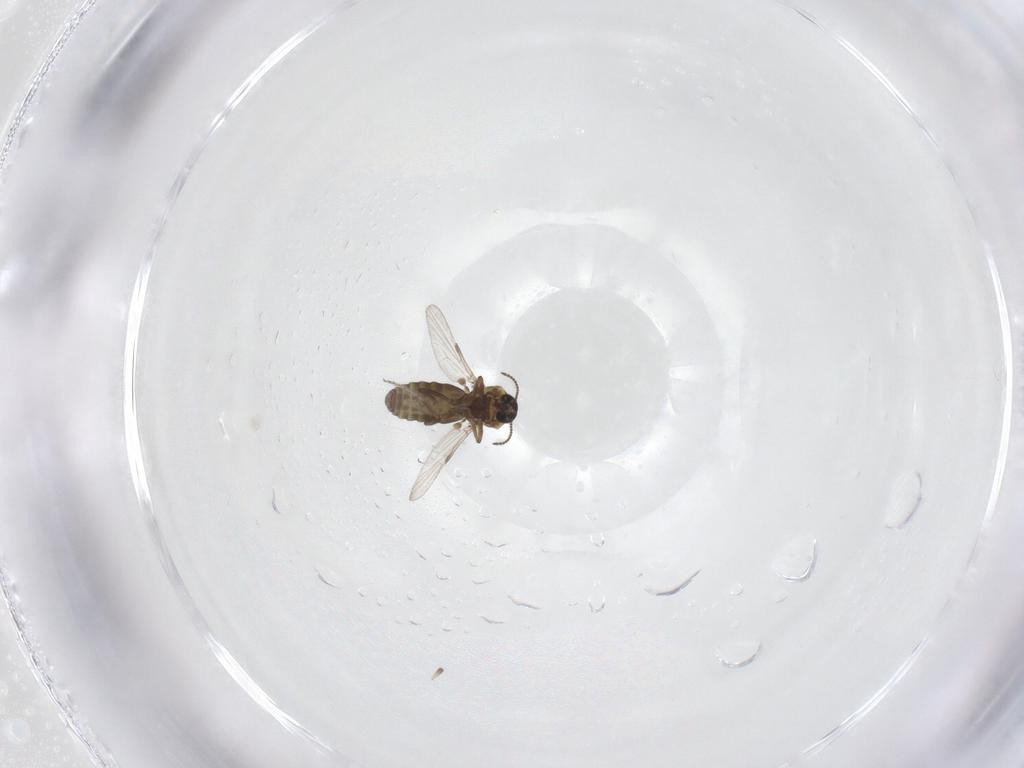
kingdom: Animalia
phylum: Arthropoda
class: Insecta
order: Diptera
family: Ceratopogonidae
